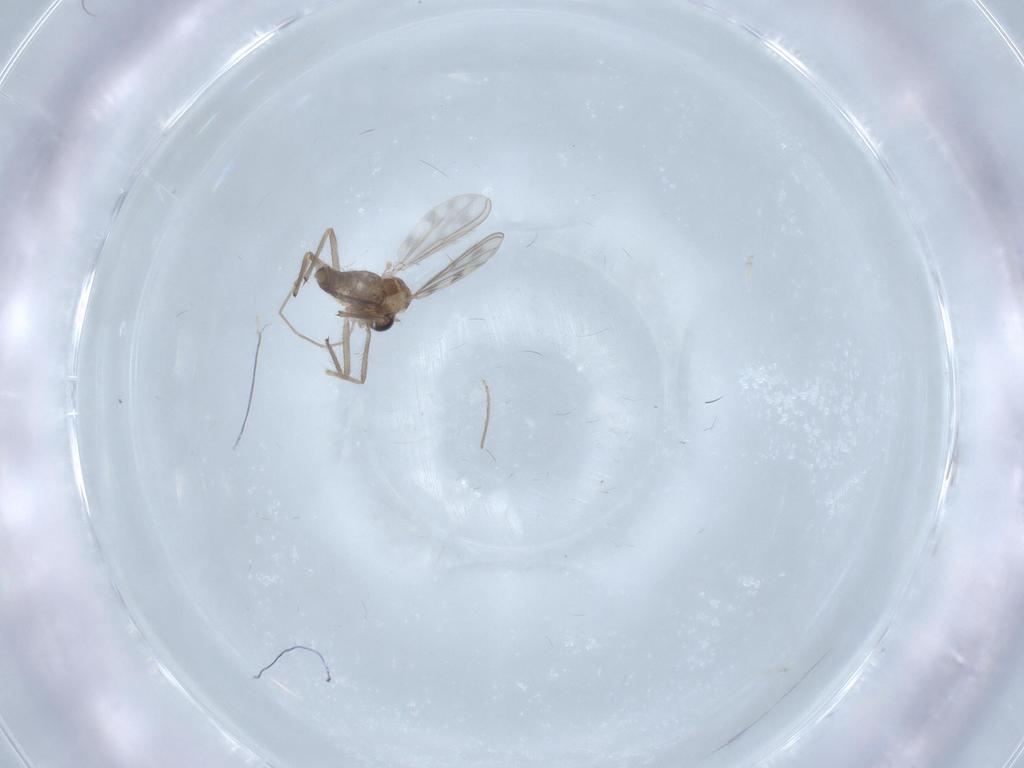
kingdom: Animalia
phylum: Arthropoda
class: Insecta
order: Diptera
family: Chironomidae
